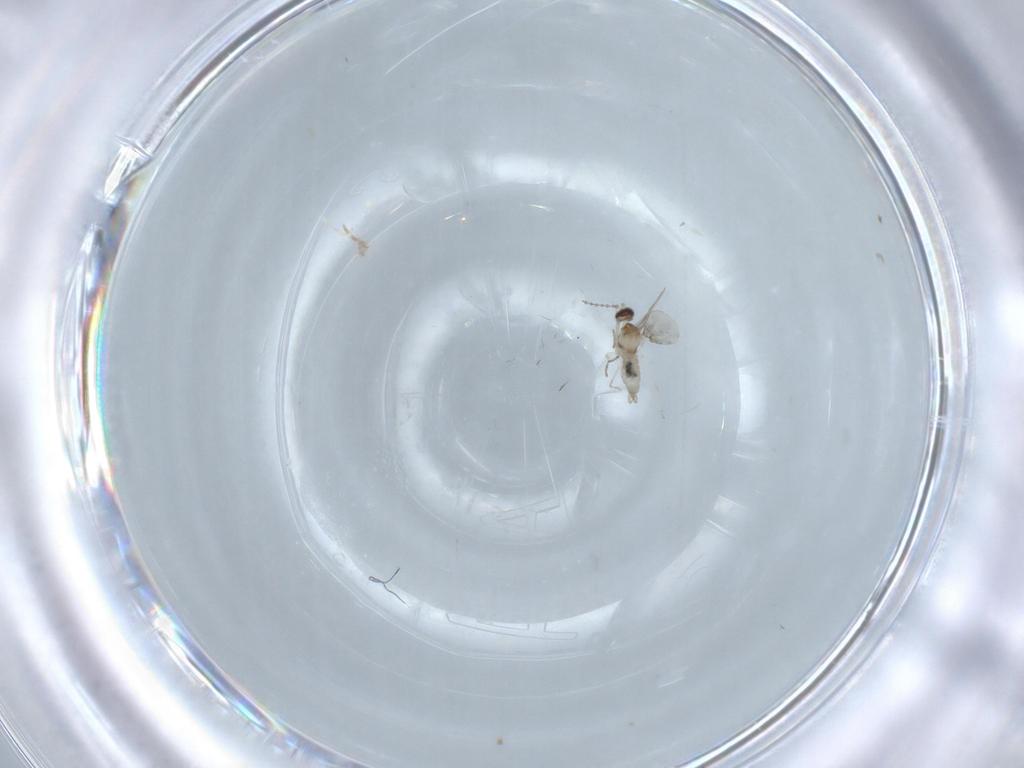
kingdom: Animalia
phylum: Arthropoda
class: Insecta
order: Diptera
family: Cecidomyiidae
